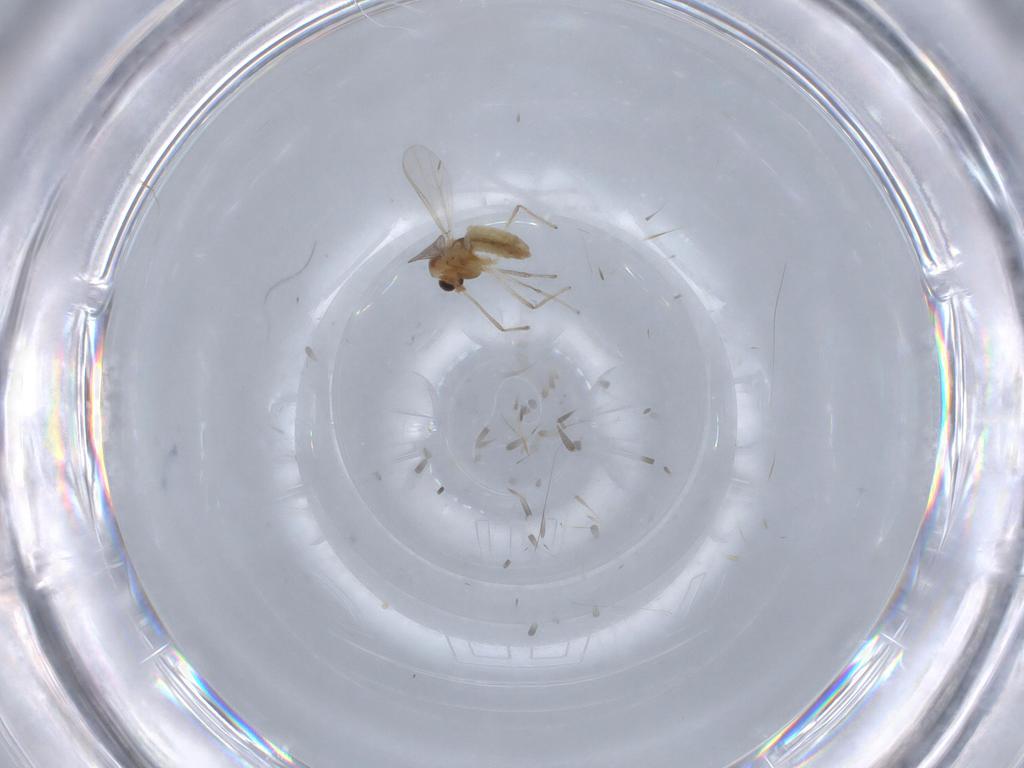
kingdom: Animalia
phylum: Arthropoda
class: Insecta
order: Diptera
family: Chironomidae
